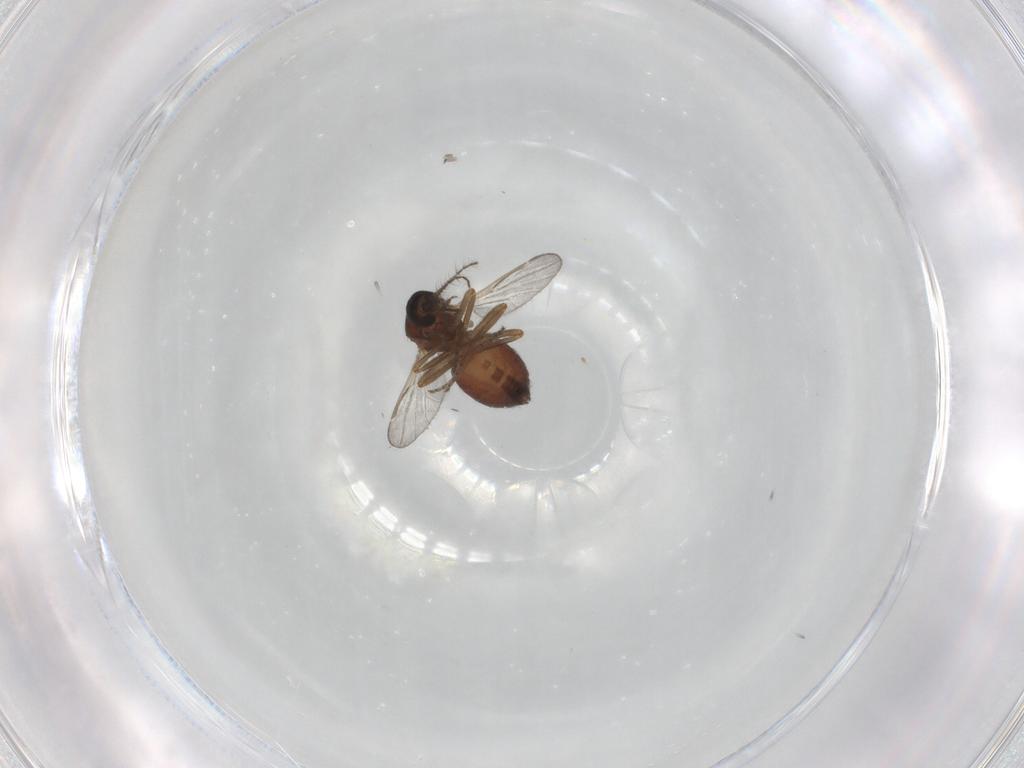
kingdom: Animalia
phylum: Arthropoda
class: Insecta
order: Diptera
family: Ceratopogonidae
